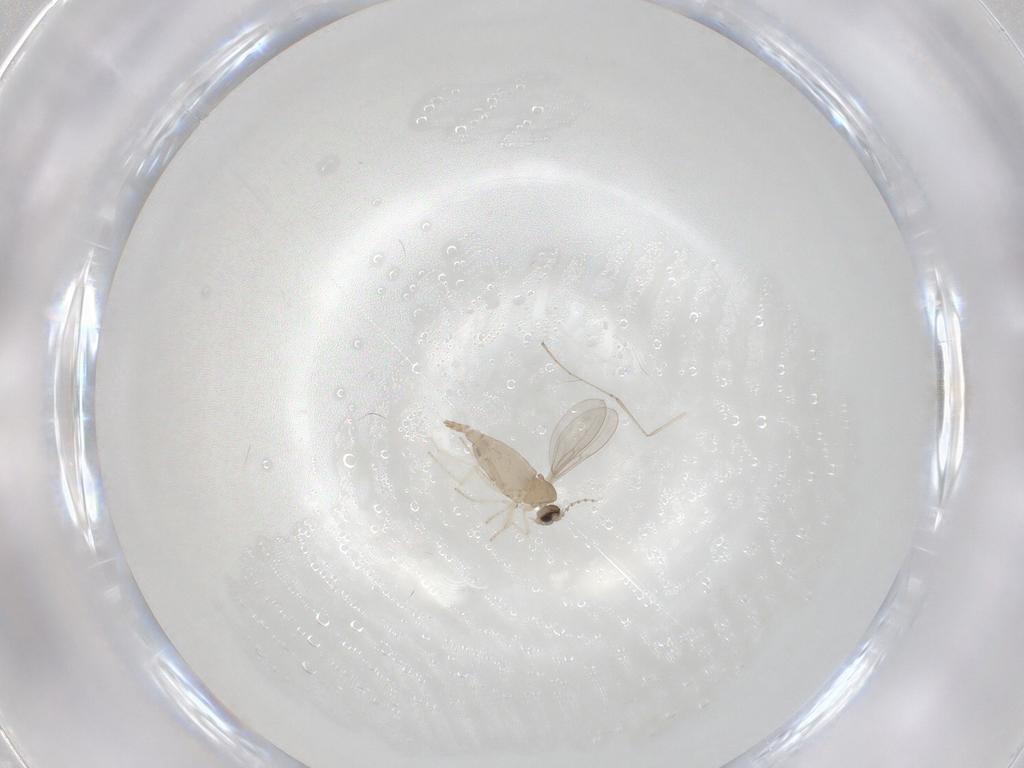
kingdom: Animalia
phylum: Arthropoda
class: Insecta
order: Diptera
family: Cecidomyiidae
